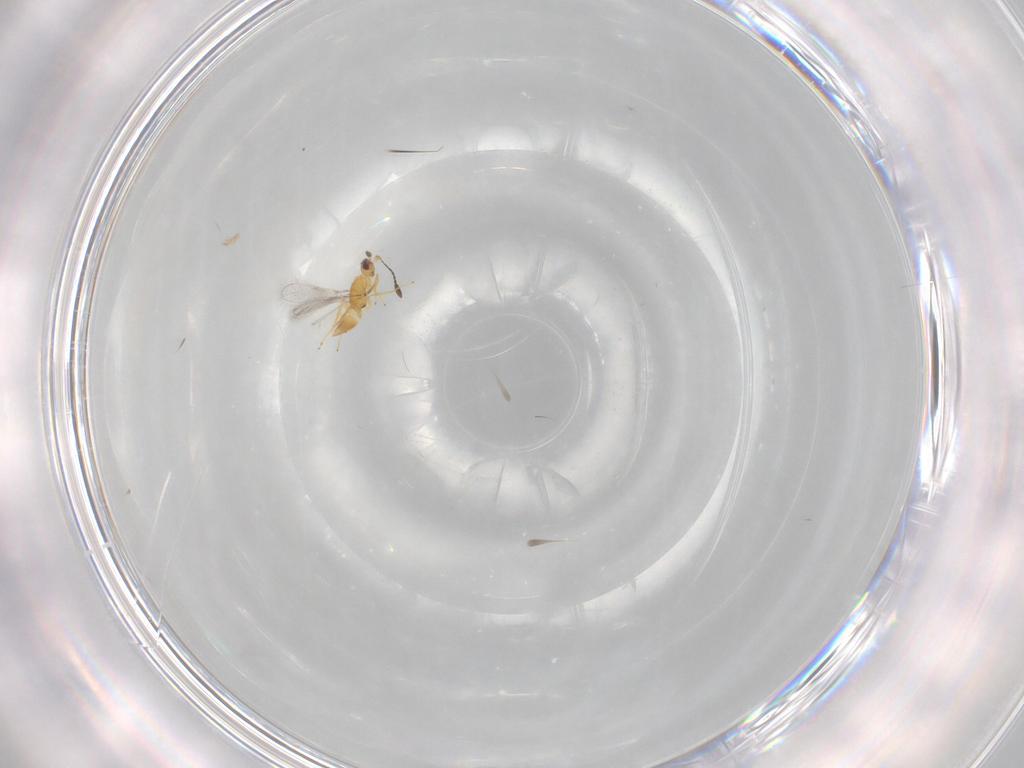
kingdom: Animalia
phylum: Arthropoda
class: Insecta
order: Hymenoptera
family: Mymaridae
